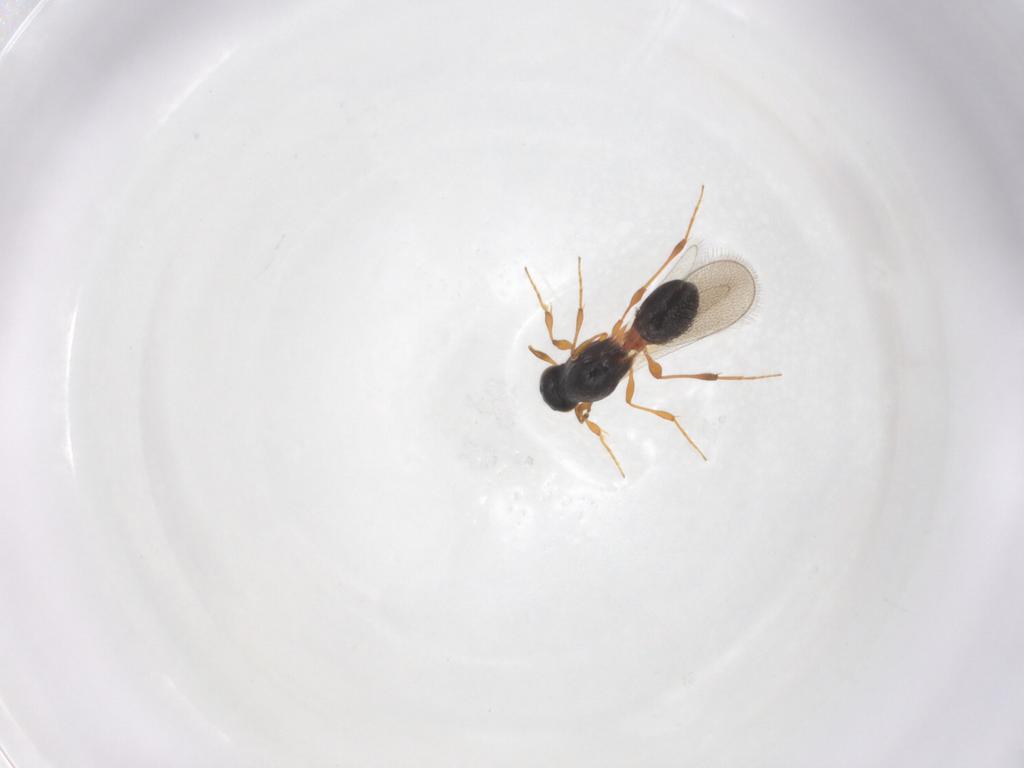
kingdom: Animalia
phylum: Arthropoda
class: Insecta
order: Hymenoptera
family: Platygastridae
